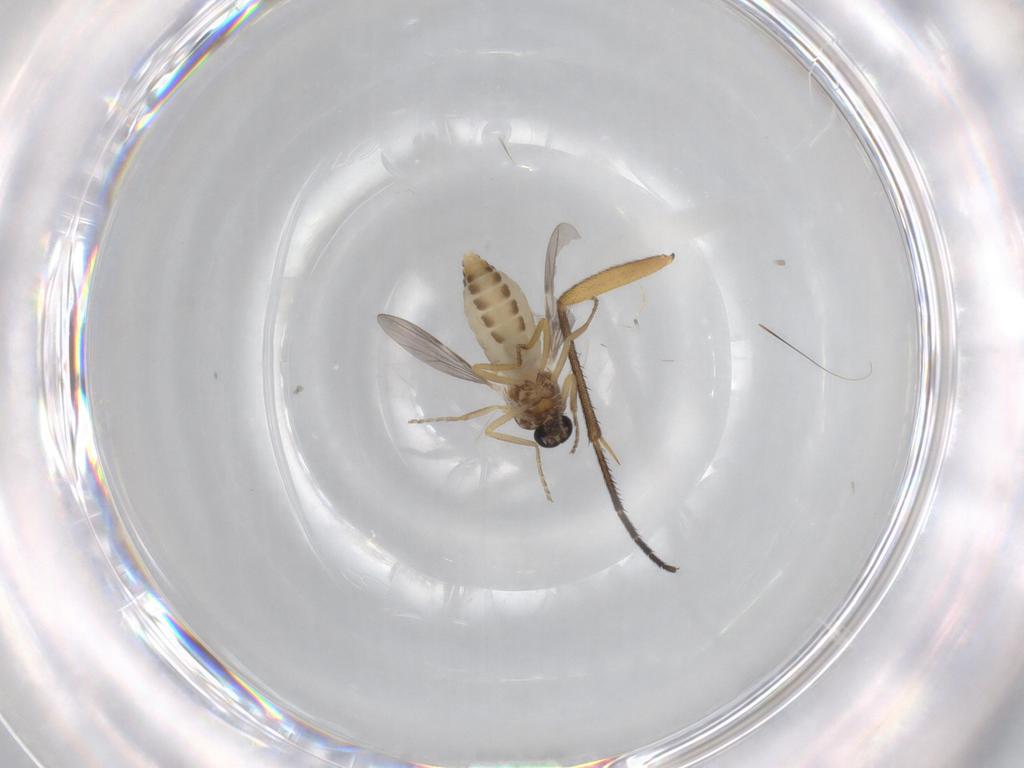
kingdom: Animalia
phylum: Arthropoda
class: Insecta
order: Diptera
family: Ceratopogonidae
